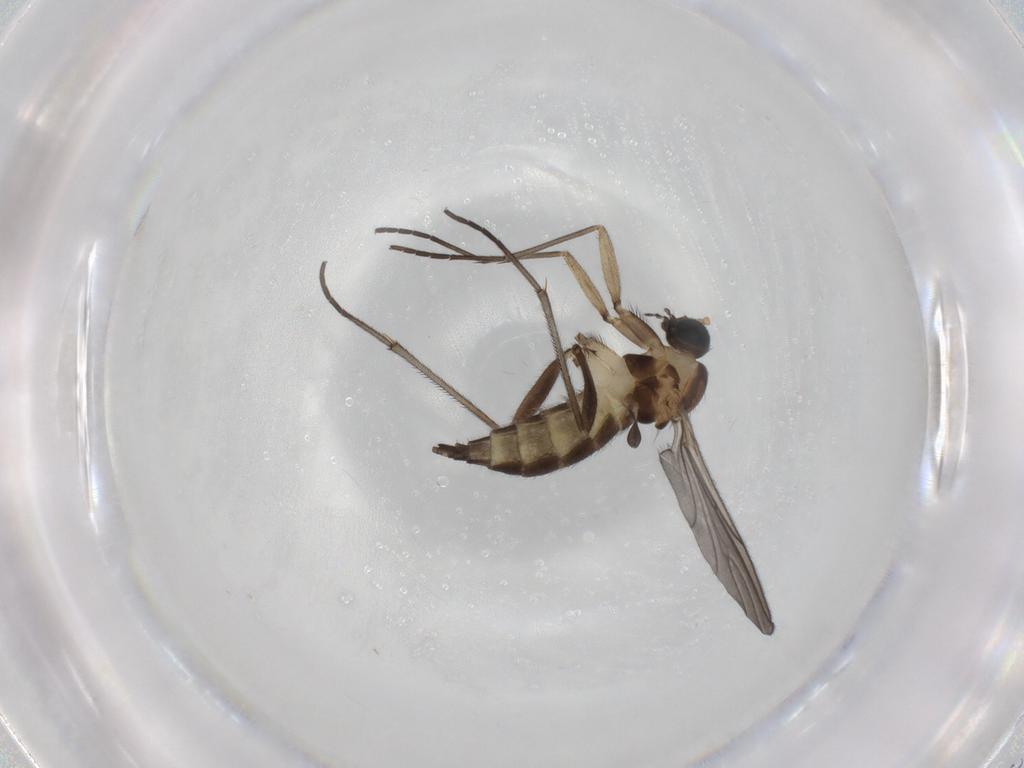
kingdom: Animalia
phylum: Arthropoda
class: Insecta
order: Diptera
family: Sciaridae
